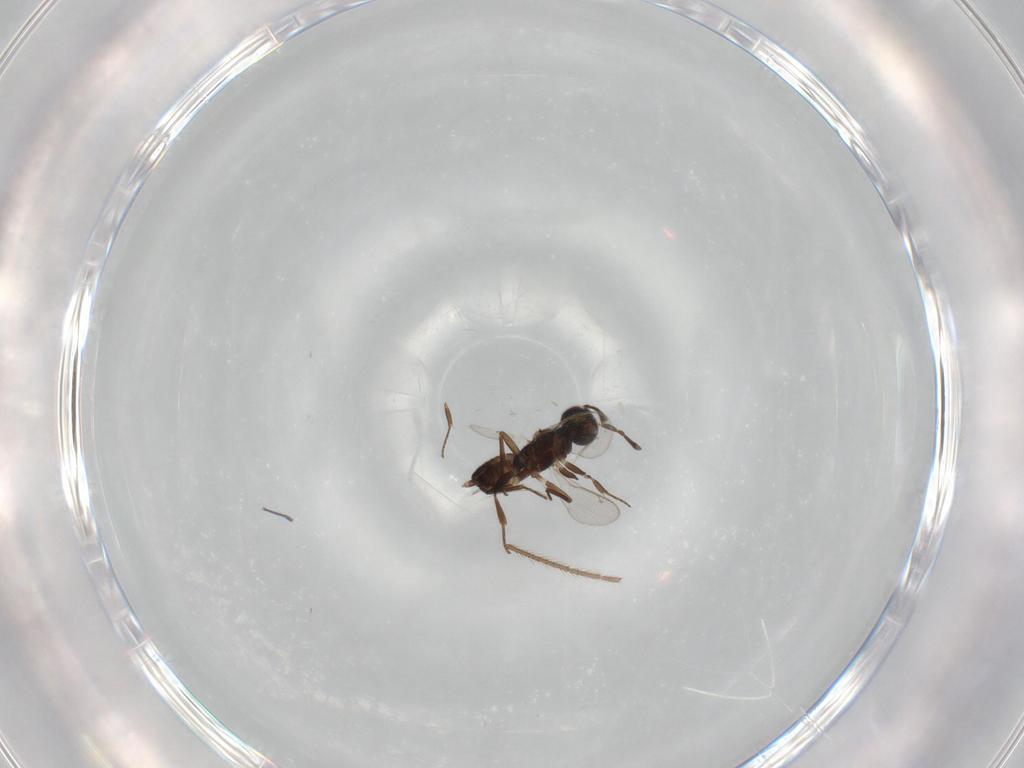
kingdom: Animalia
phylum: Arthropoda
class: Insecta
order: Hymenoptera
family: Eupelmidae
